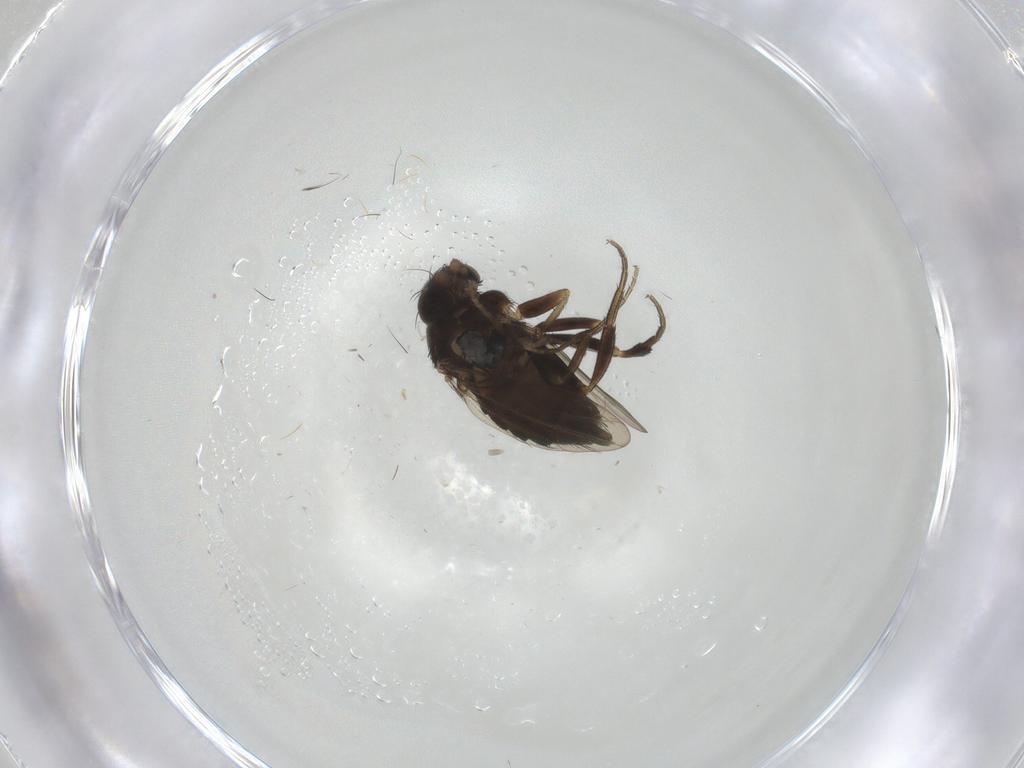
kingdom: Animalia
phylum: Arthropoda
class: Insecta
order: Diptera
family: Phoridae
